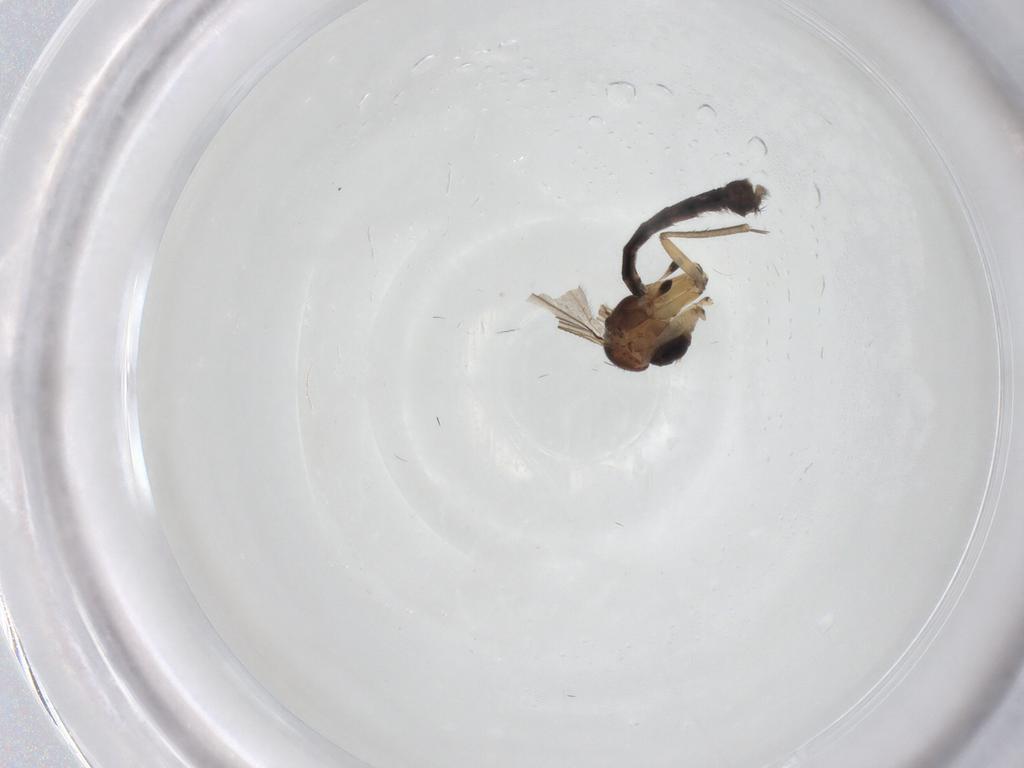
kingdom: Animalia
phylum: Arthropoda
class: Insecta
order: Diptera
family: Mycetophilidae
